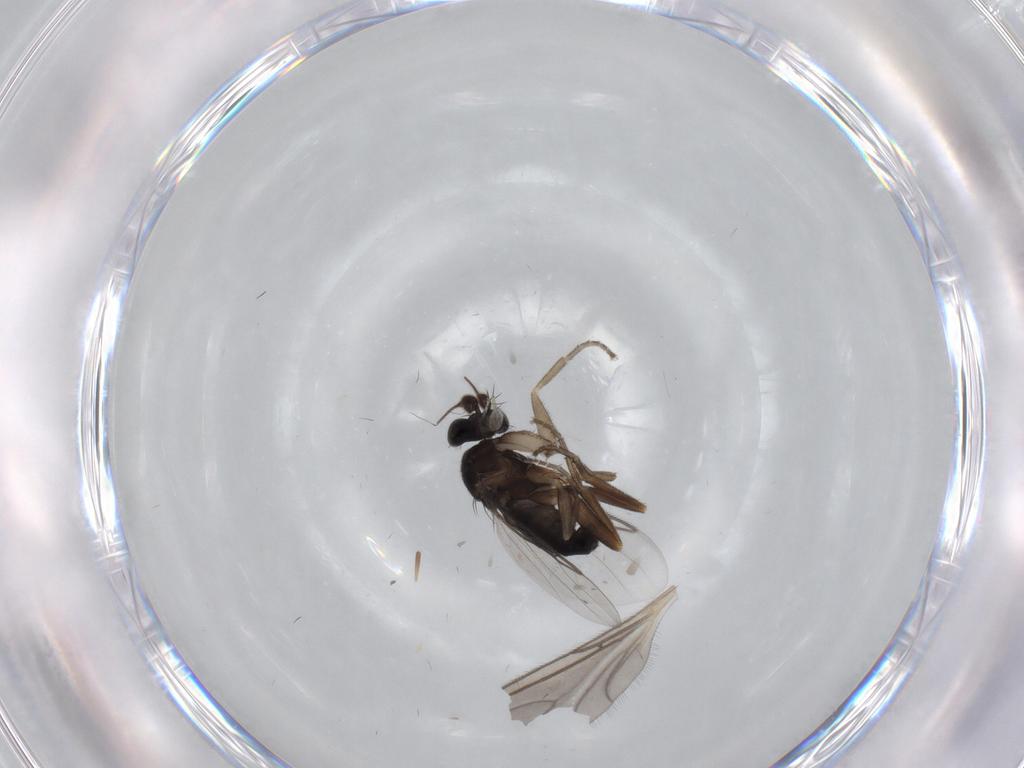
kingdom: Animalia
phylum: Arthropoda
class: Insecta
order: Diptera
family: Phoridae
